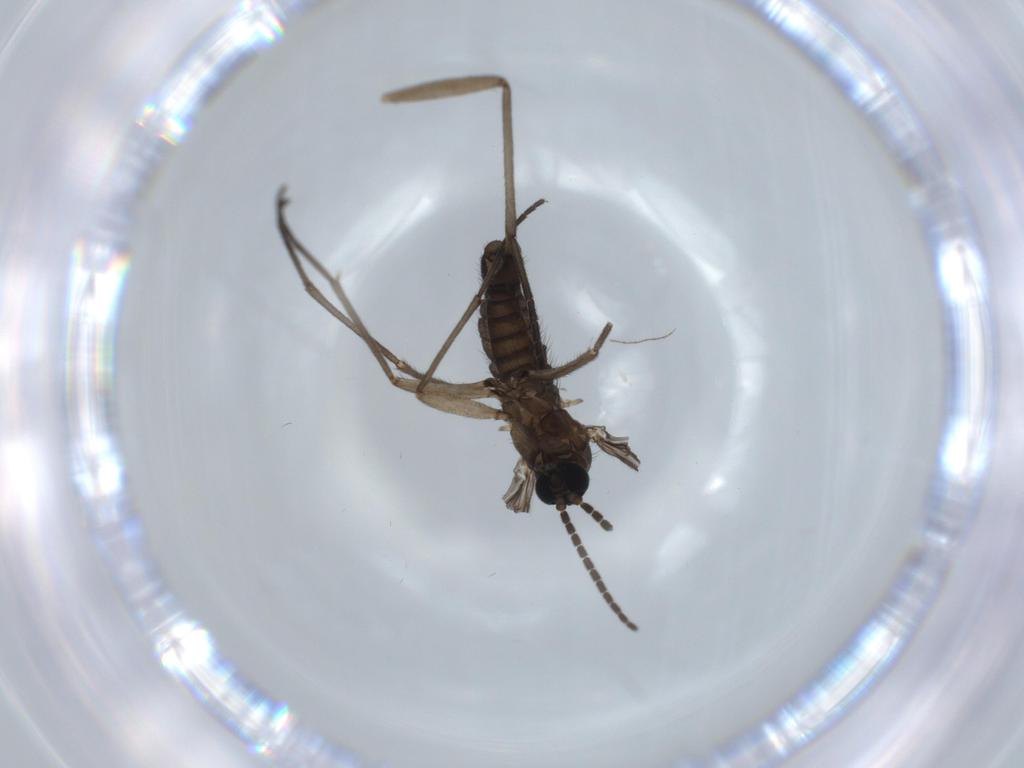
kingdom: Animalia
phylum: Arthropoda
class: Insecta
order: Diptera
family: Sciaridae
